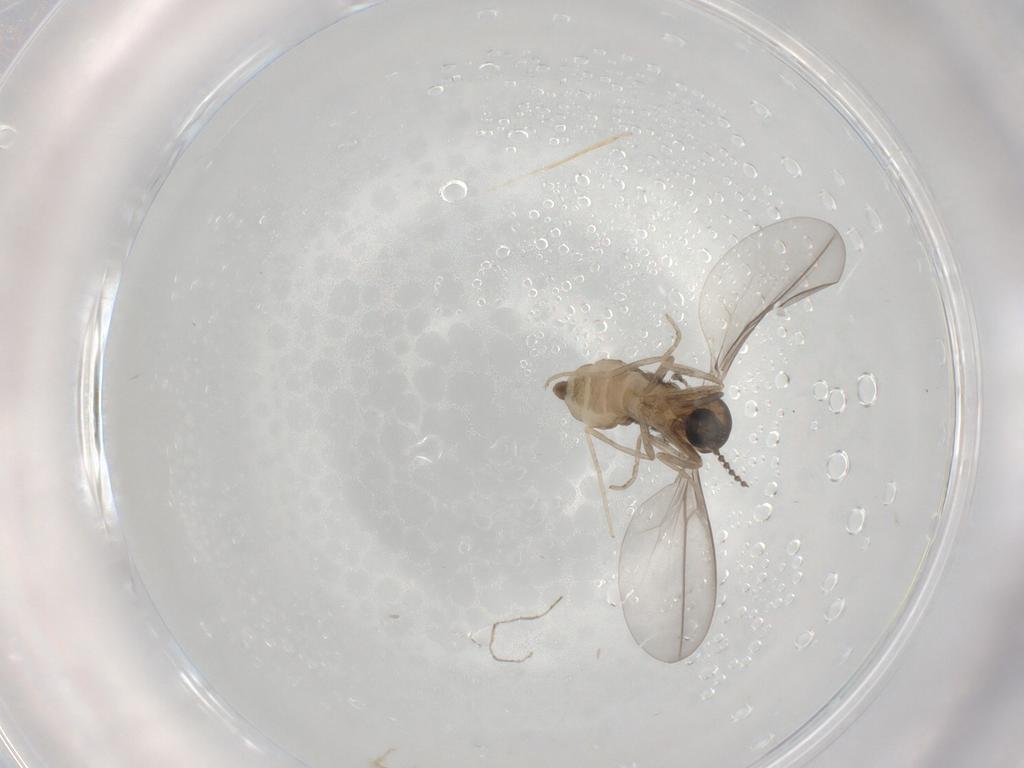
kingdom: Animalia
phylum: Arthropoda
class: Insecta
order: Diptera
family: Cecidomyiidae
